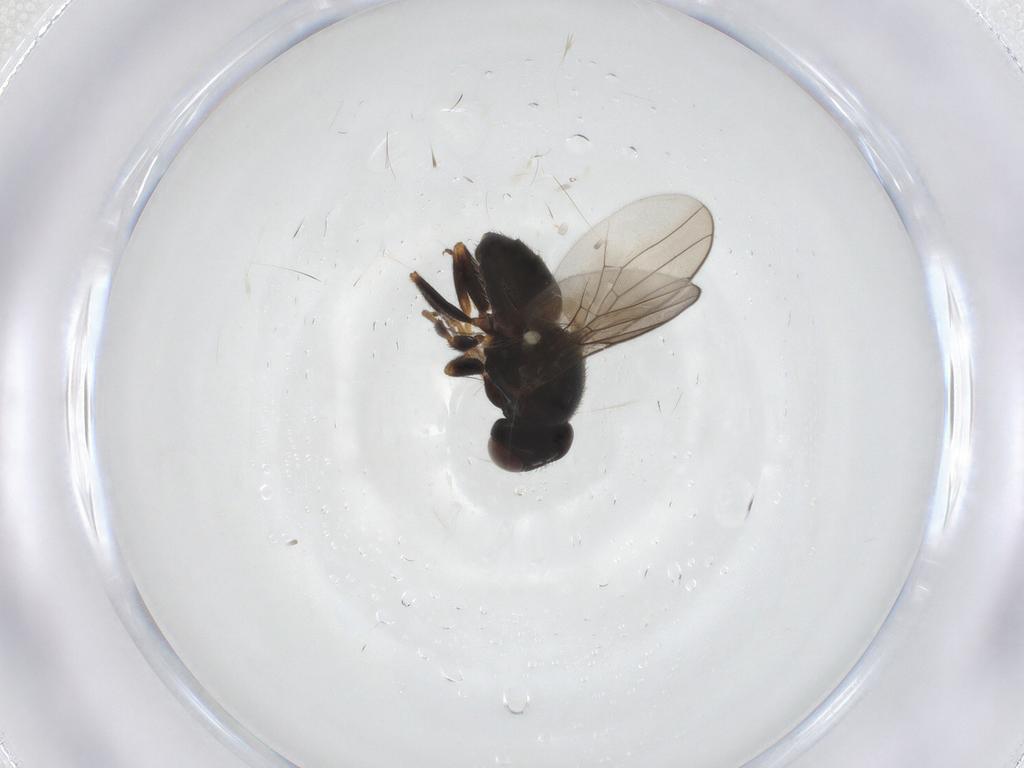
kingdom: Animalia
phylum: Arthropoda
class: Insecta
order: Diptera
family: Chloropidae
